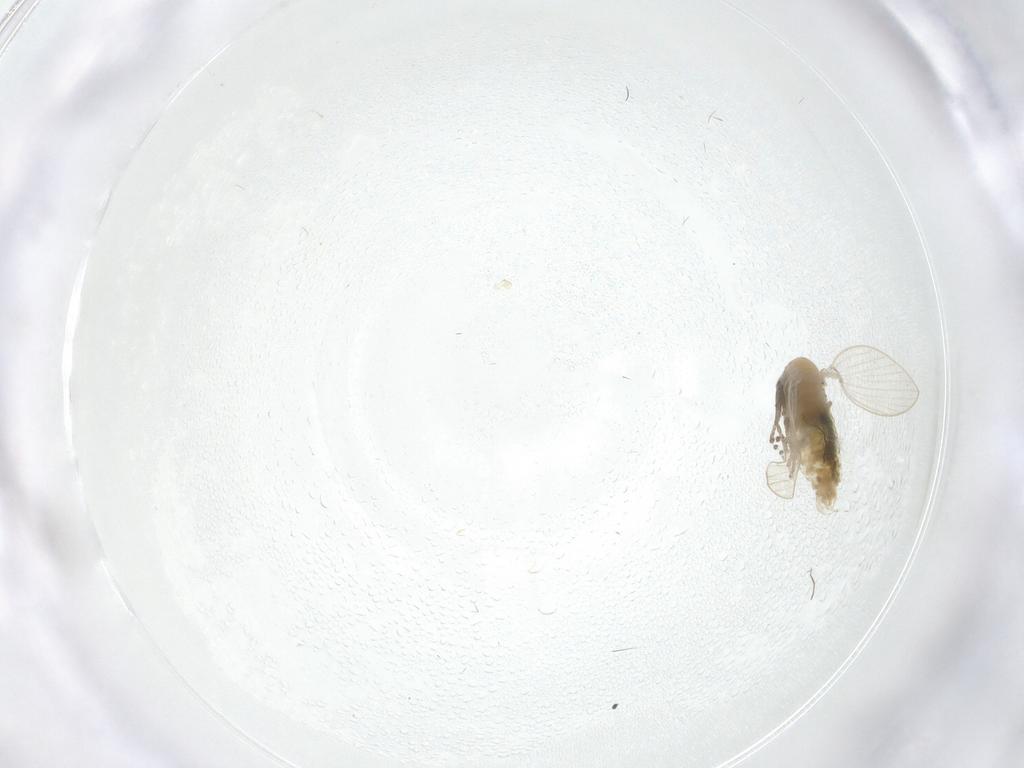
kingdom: Animalia
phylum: Arthropoda
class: Insecta
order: Diptera
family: Psychodidae
